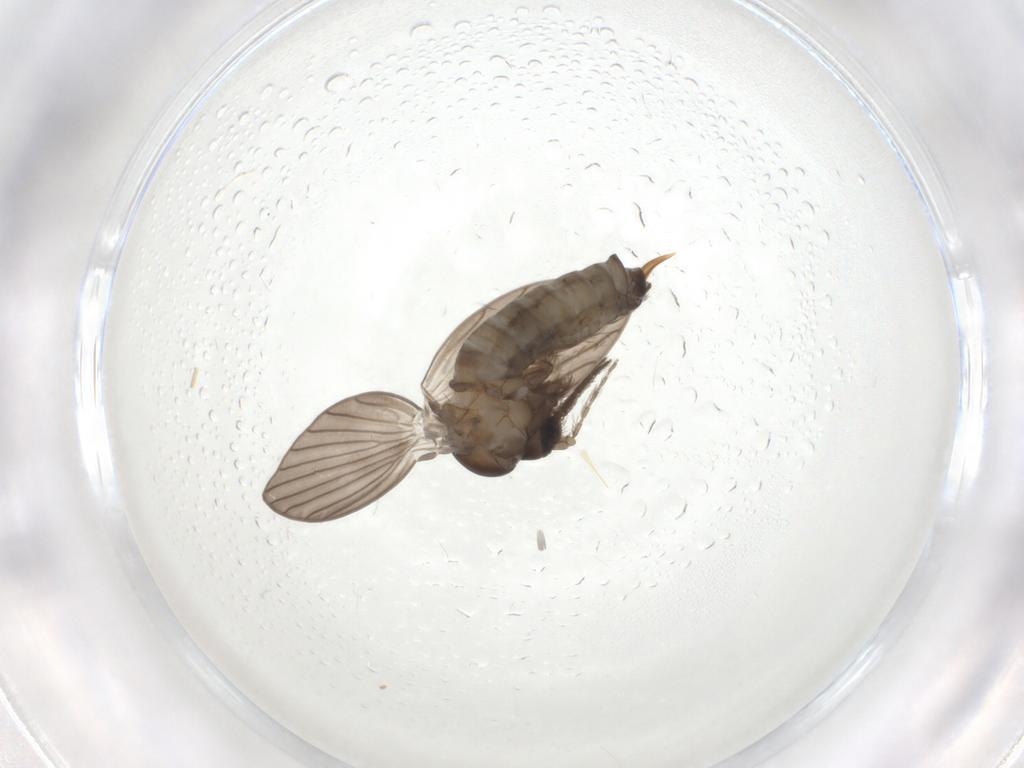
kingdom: Animalia
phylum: Arthropoda
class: Insecta
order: Diptera
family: Psychodidae
